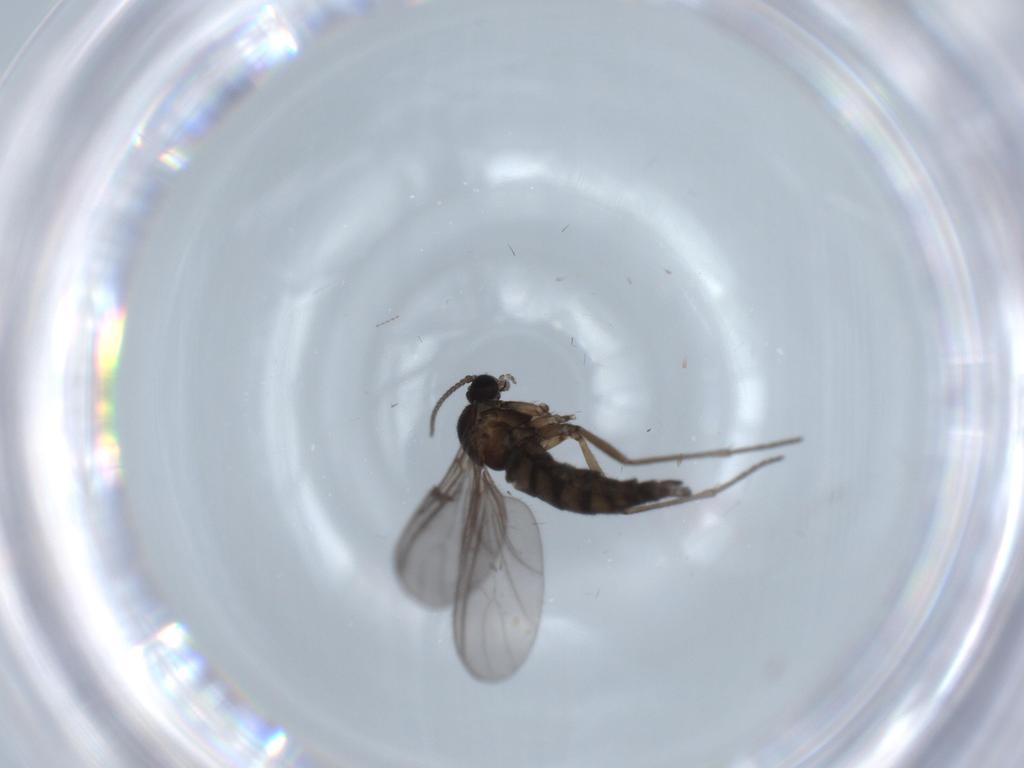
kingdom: Animalia
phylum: Arthropoda
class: Insecta
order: Diptera
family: Sciaridae
